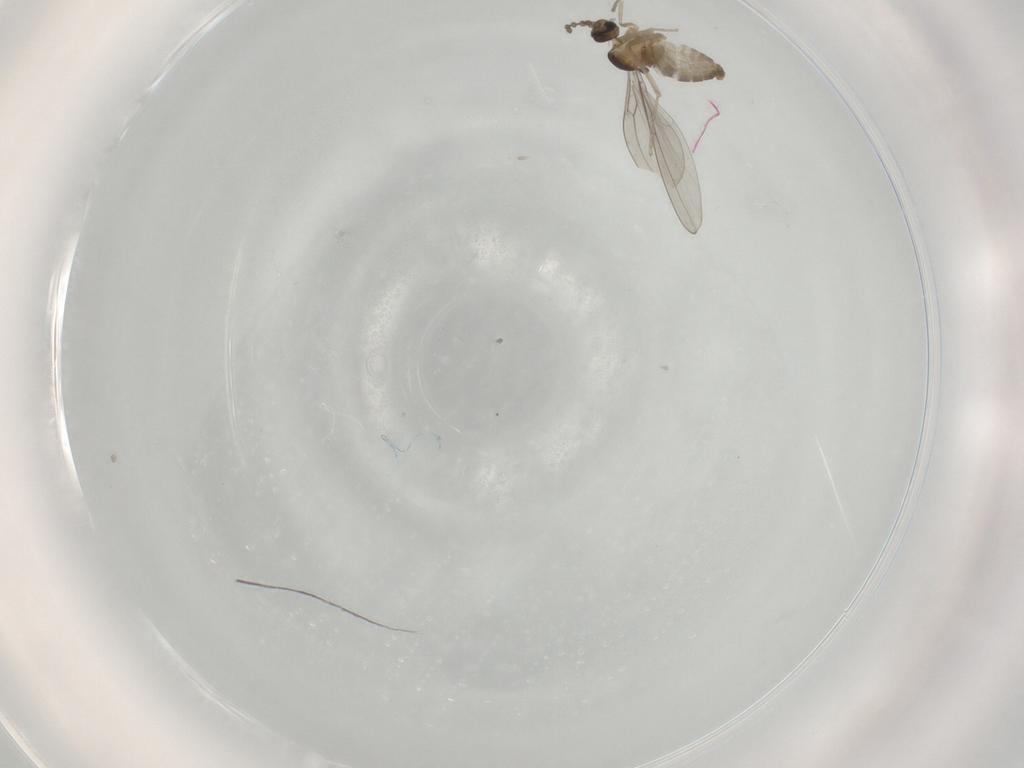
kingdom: Animalia
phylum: Arthropoda
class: Insecta
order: Diptera
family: Cecidomyiidae
